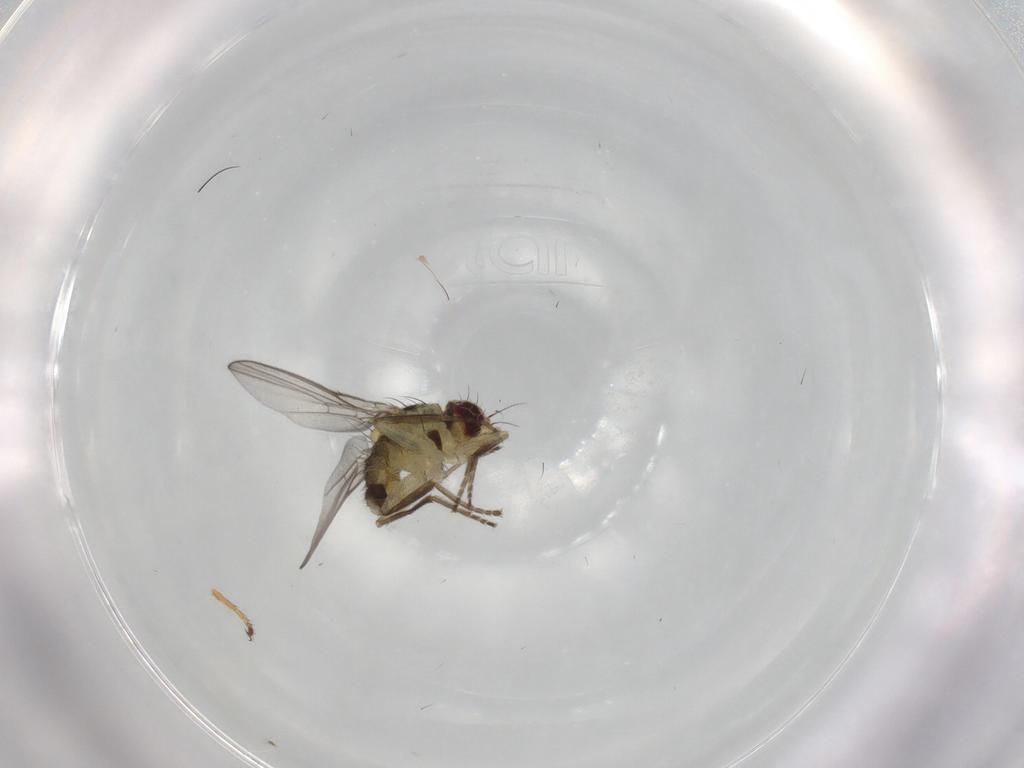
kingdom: Animalia
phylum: Arthropoda
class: Insecta
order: Diptera
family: Agromyzidae
